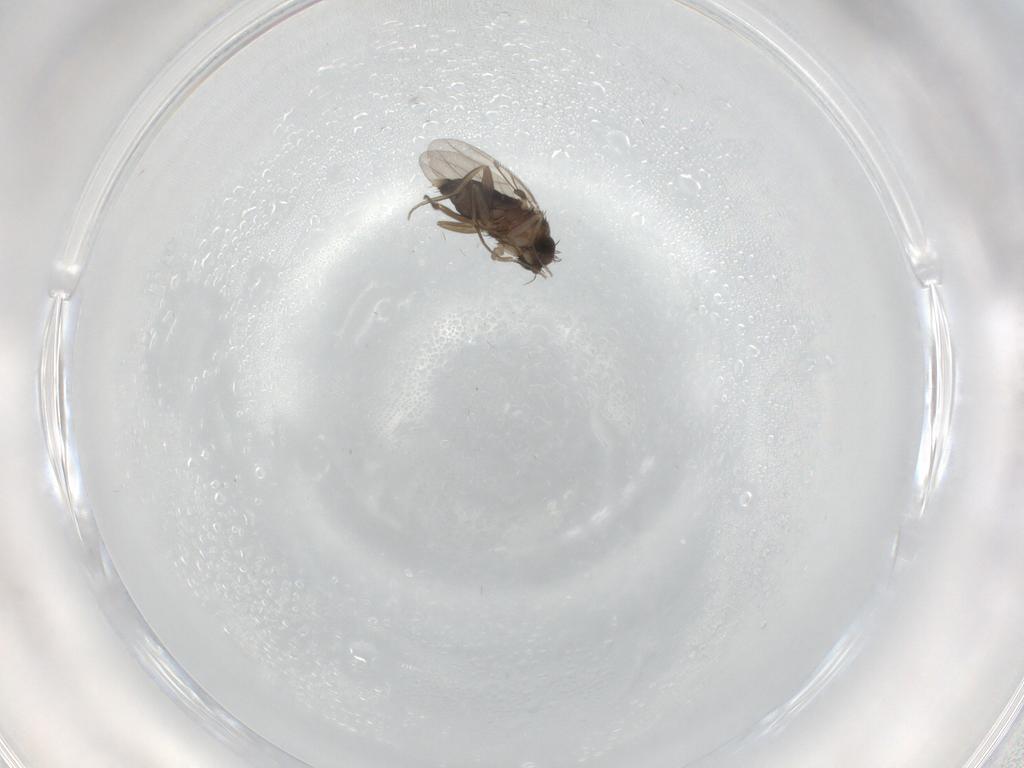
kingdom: Animalia
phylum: Arthropoda
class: Insecta
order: Diptera
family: Phoridae
